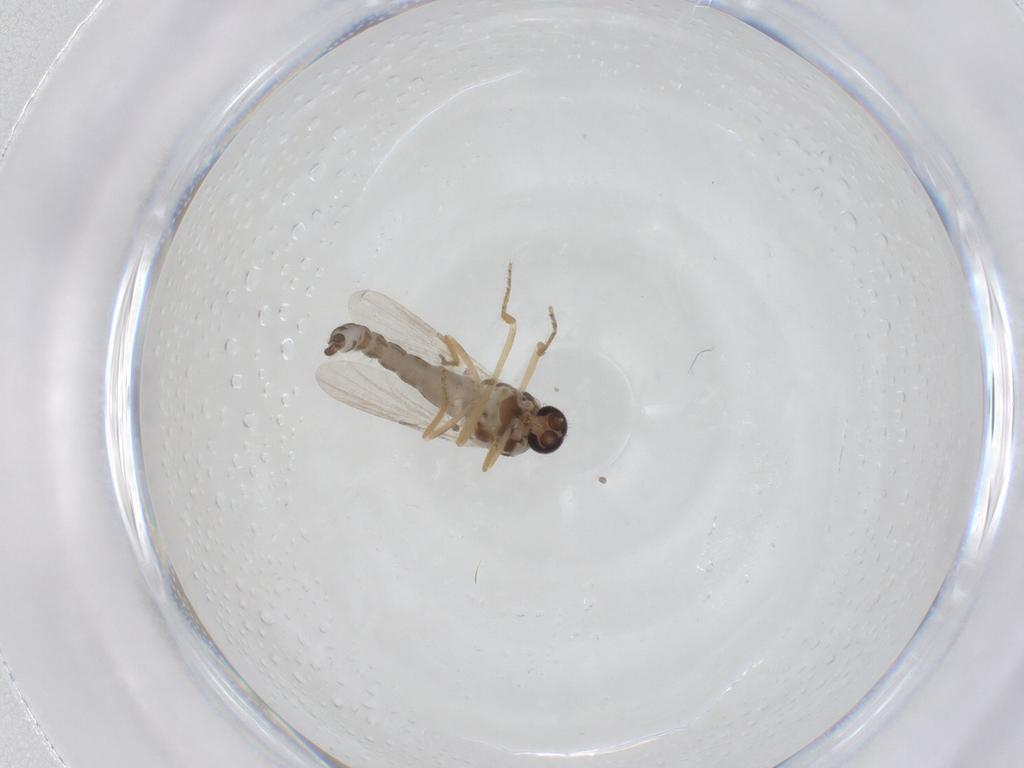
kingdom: Animalia
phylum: Arthropoda
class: Insecta
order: Diptera
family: Ceratopogonidae
